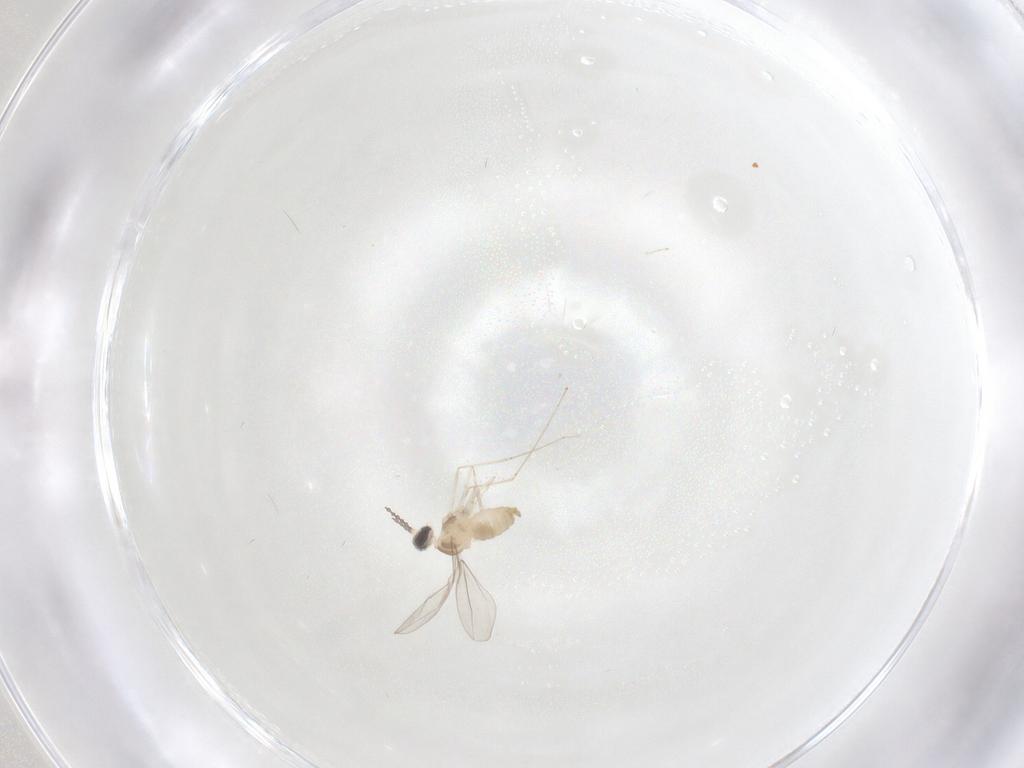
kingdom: Animalia
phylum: Arthropoda
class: Insecta
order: Diptera
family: Cecidomyiidae
